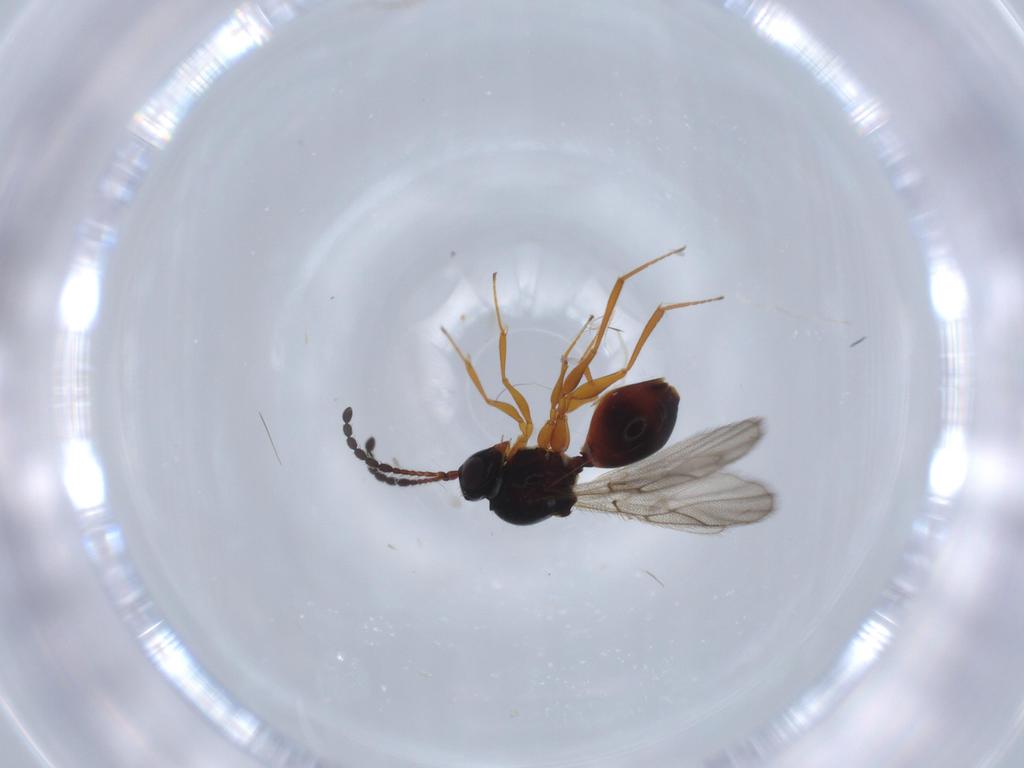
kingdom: Animalia
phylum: Arthropoda
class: Insecta
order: Hymenoptera
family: Figitidae
